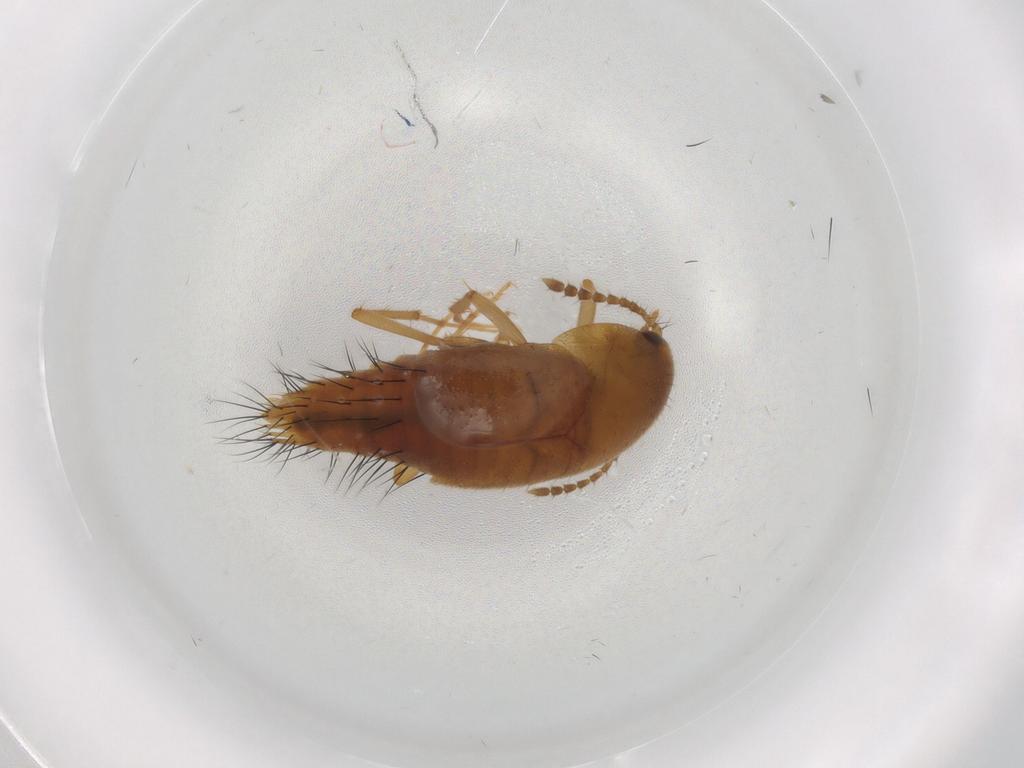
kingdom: Animalia
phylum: Arthropoda
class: Insecta
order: Coleoptera
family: Staphylinidae
